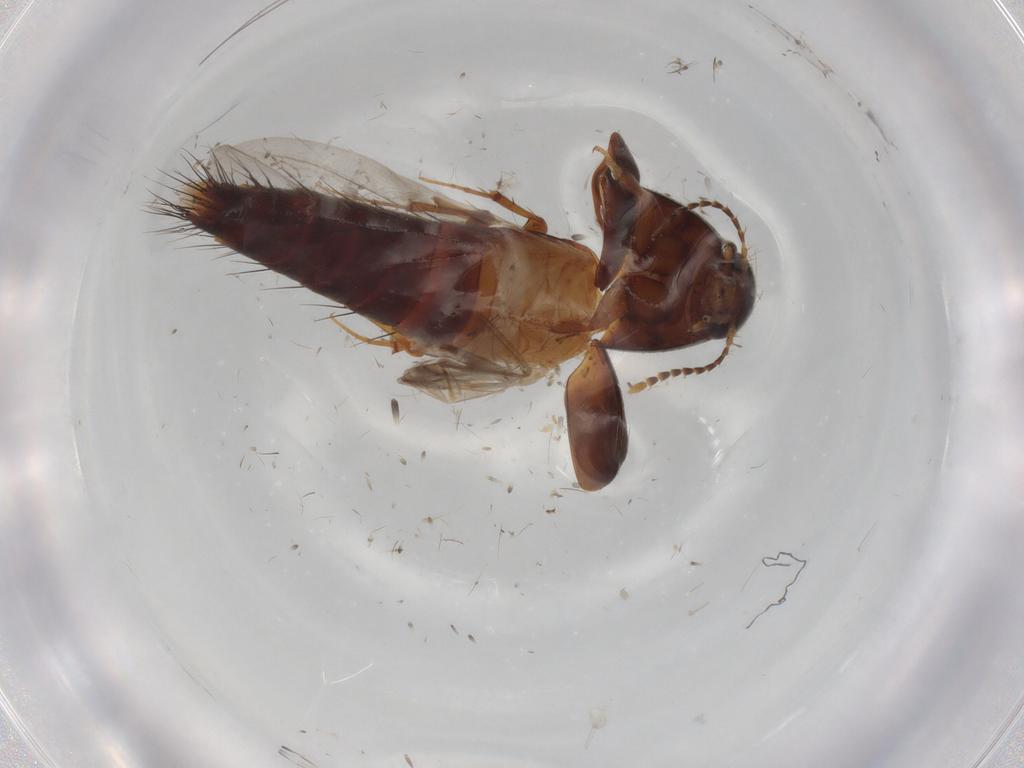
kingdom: Animalia
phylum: Arthropoda
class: Insecta
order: Coleoptera
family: Staphylinidae
